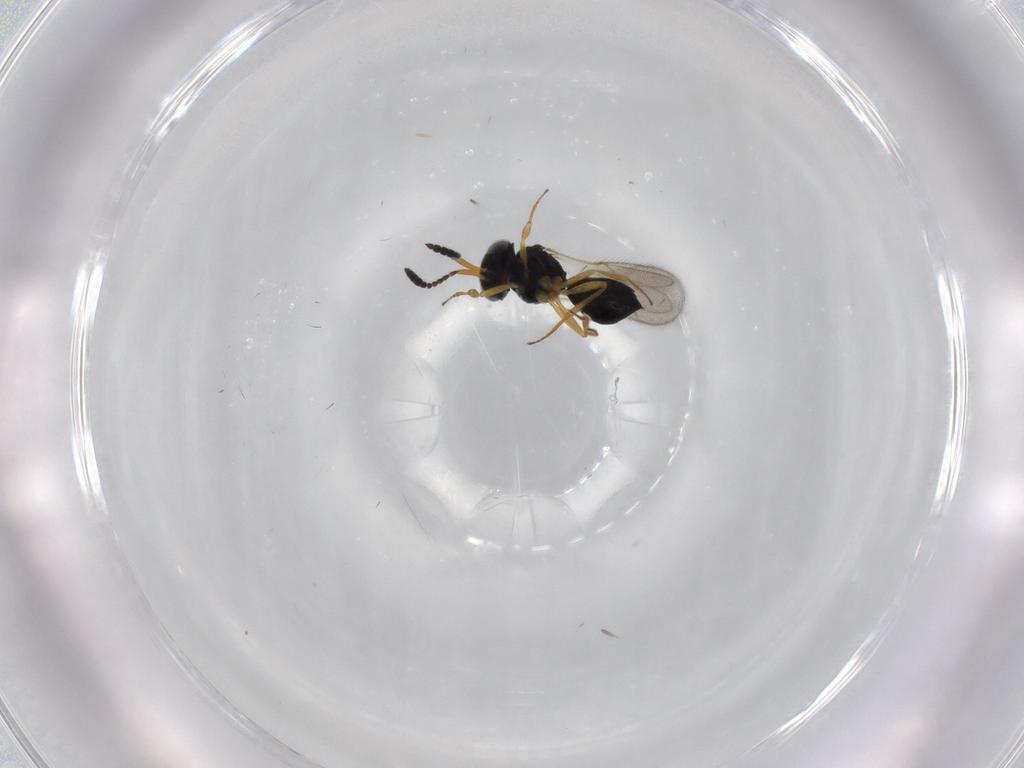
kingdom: Animalia
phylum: Arthropoda
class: Insecta
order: Hymenoptera
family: Scelionidae
